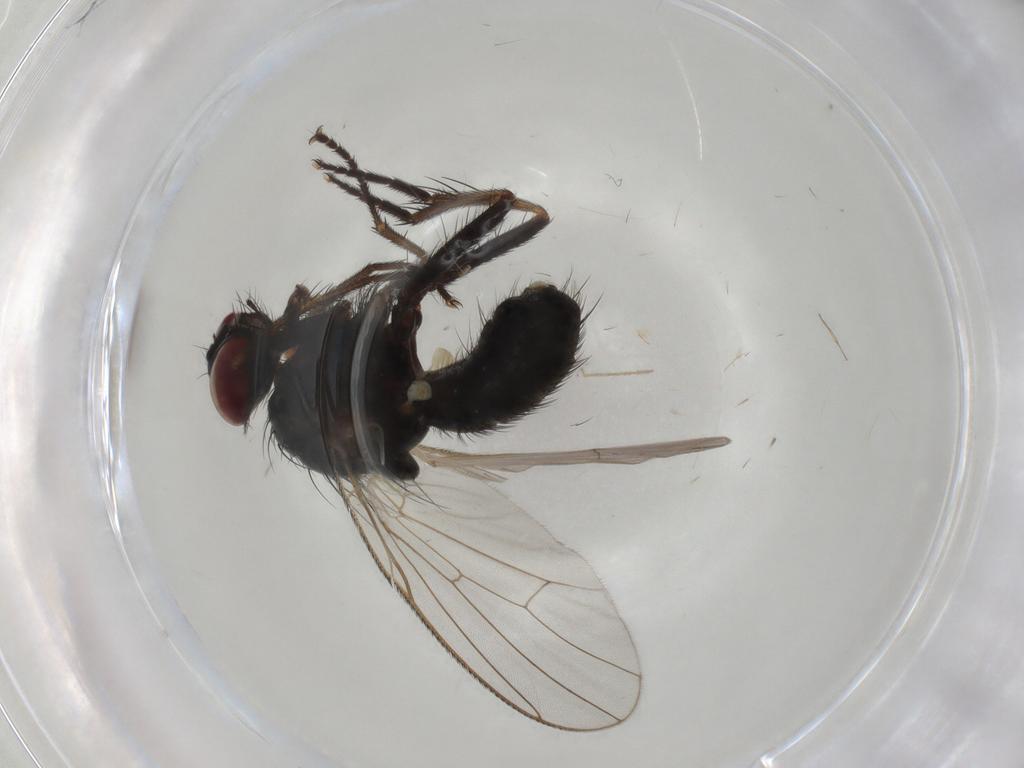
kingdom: Animalia
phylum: Arthropoda
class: Insecta
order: Diptera
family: Muscidae
